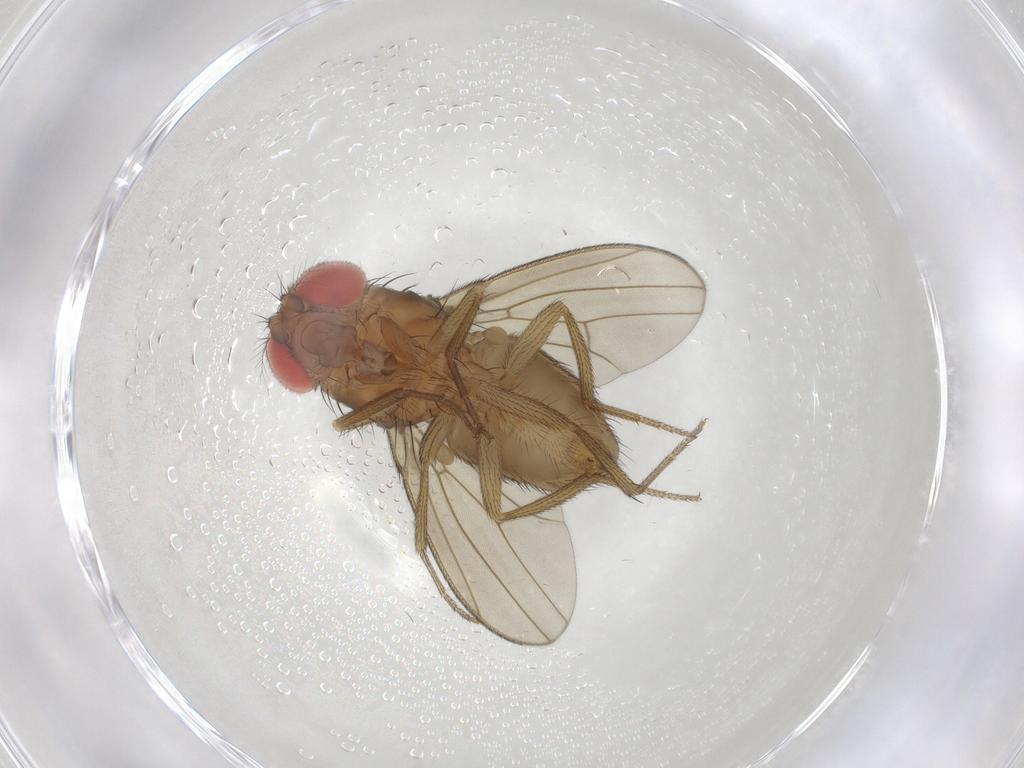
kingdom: Animalia
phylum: Arthropoda
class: Insecta
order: Diptera
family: Drosophilidae
